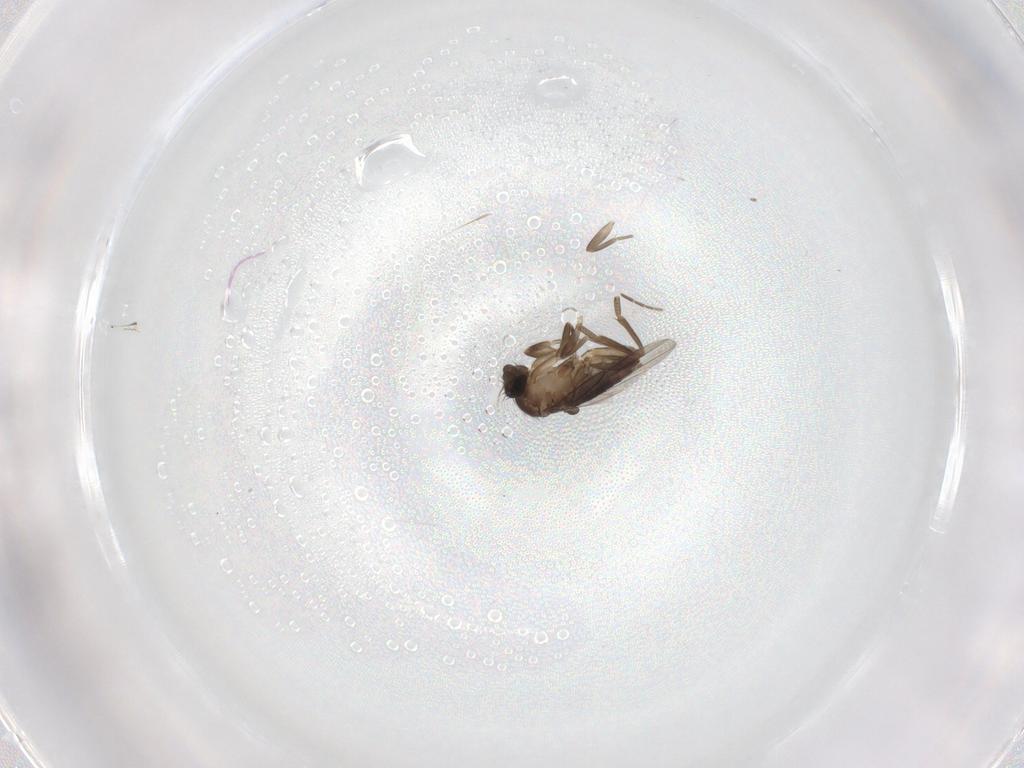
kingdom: Animalia
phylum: Arthropoda
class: Insecta
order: Diptera
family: Phoridae
